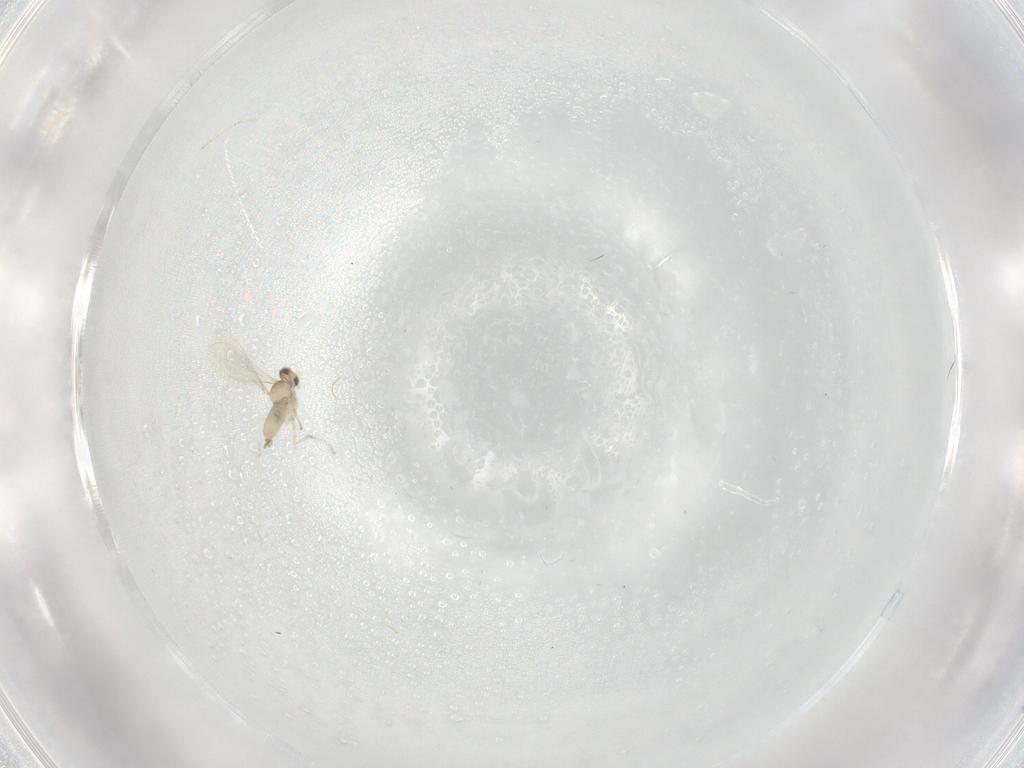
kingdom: Animalia
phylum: Arthropoda
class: Insecta
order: Diptera
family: Cecidomyiidae
